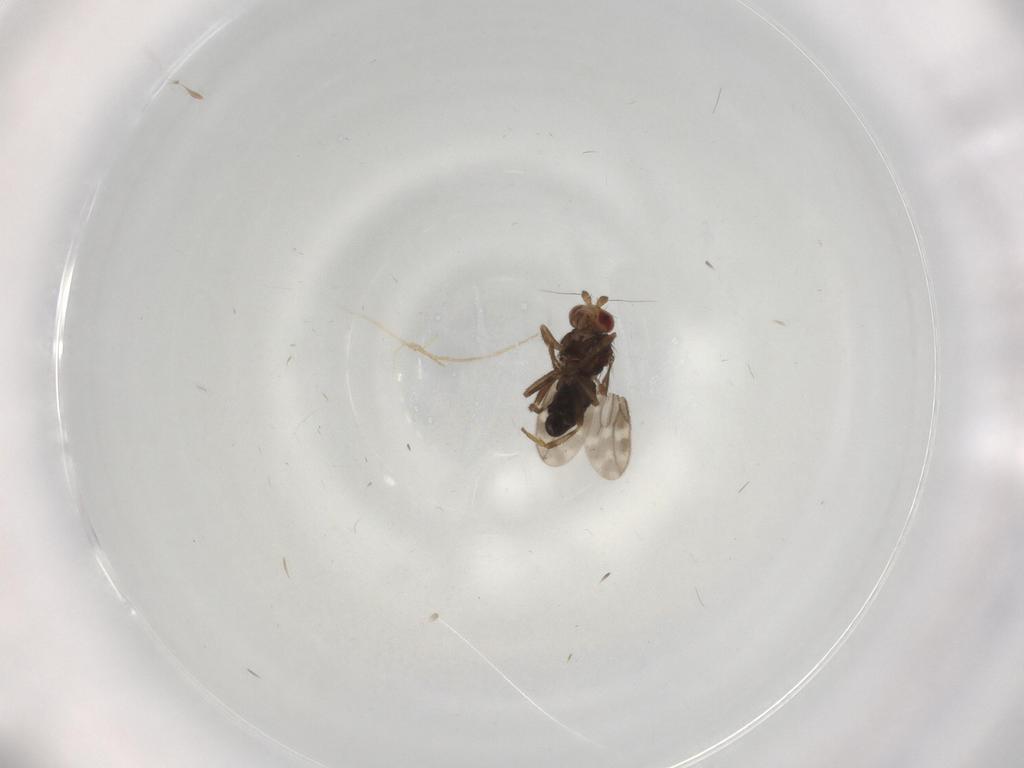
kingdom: Animalia
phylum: Arthropoda
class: Insecta
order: Diptera
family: Sphaeroceridae
